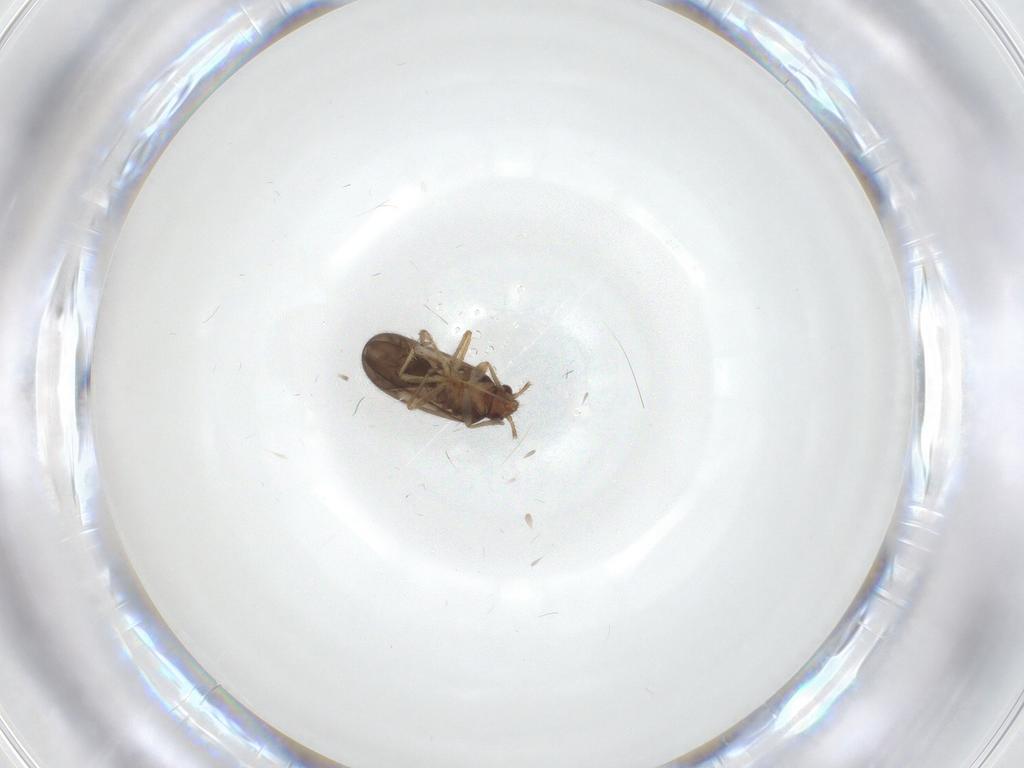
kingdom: Animalia
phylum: Arthropoda
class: Insecta
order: Hemiptera
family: Ceratocombidae
